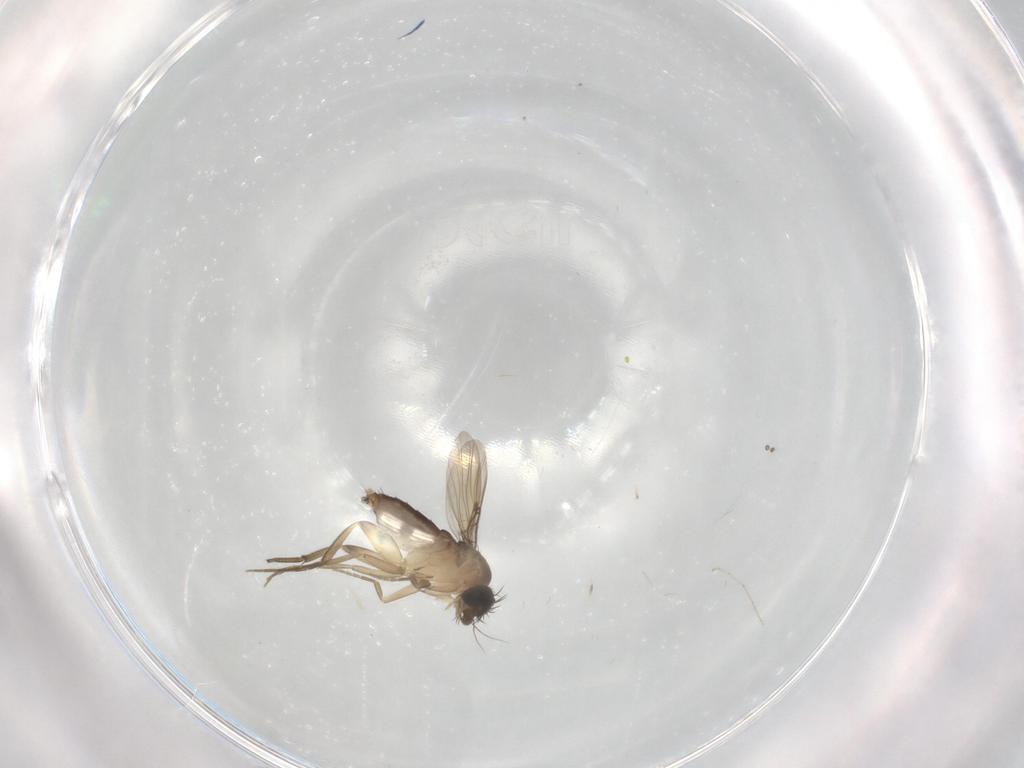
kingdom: Animalia
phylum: Arthropoda
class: Insecta
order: Diptera
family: Phoridae
